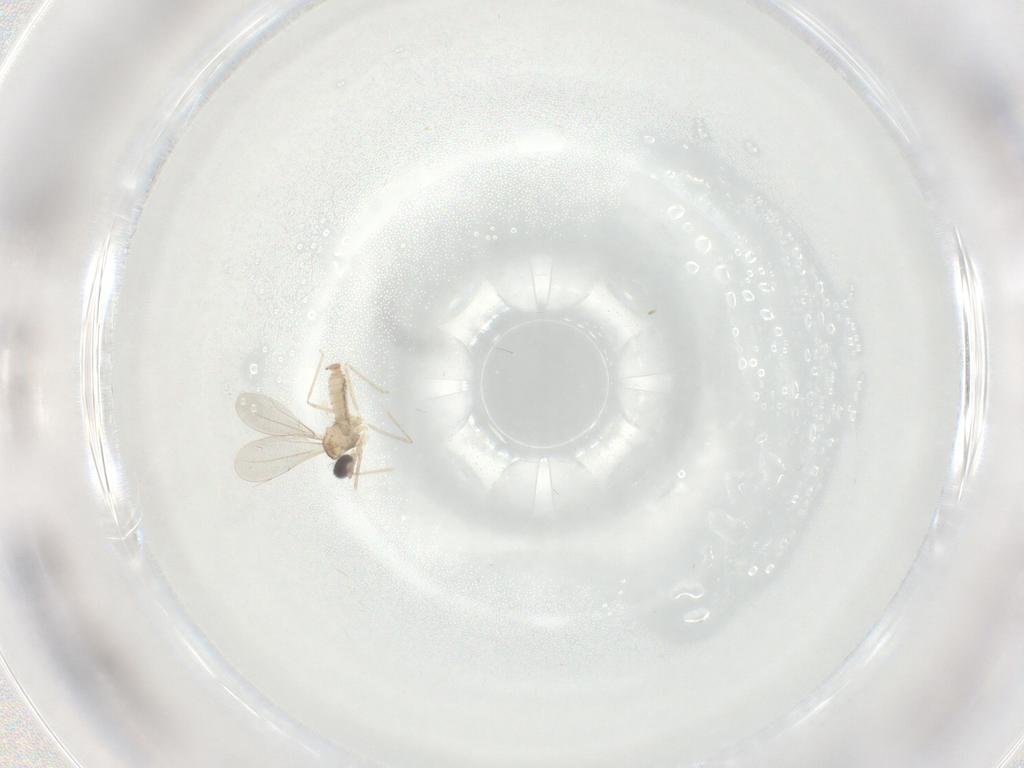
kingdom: Animalia
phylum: Arthropoda
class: Insecta
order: Diptera
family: Cecidomyiidae
